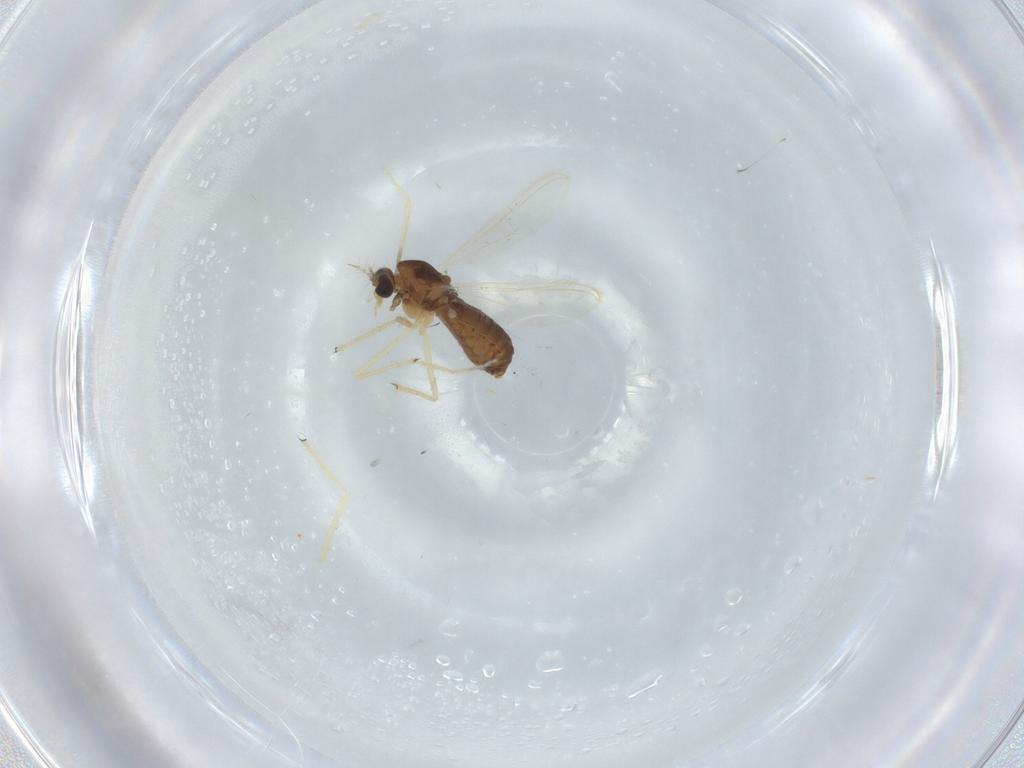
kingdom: Animalia
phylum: Arthropoda
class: Insecta
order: Diptera
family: Chironomidae
